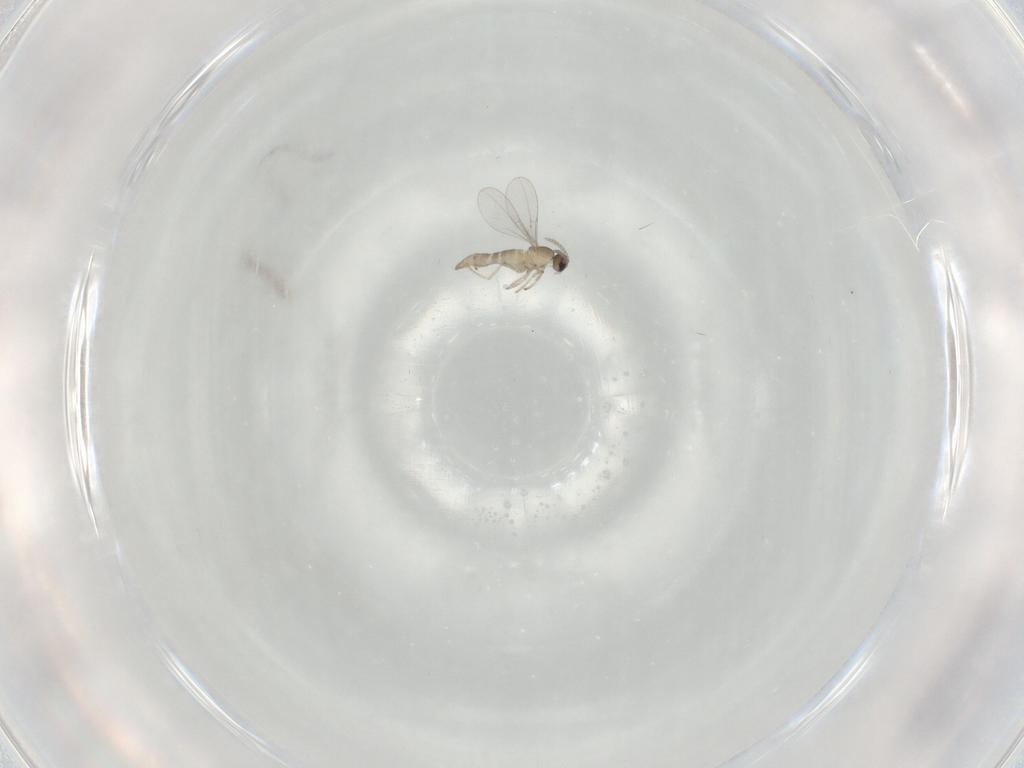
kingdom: Animalia
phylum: Arthropoda
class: Insecta
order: Diptera
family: Cecidomyiidae
